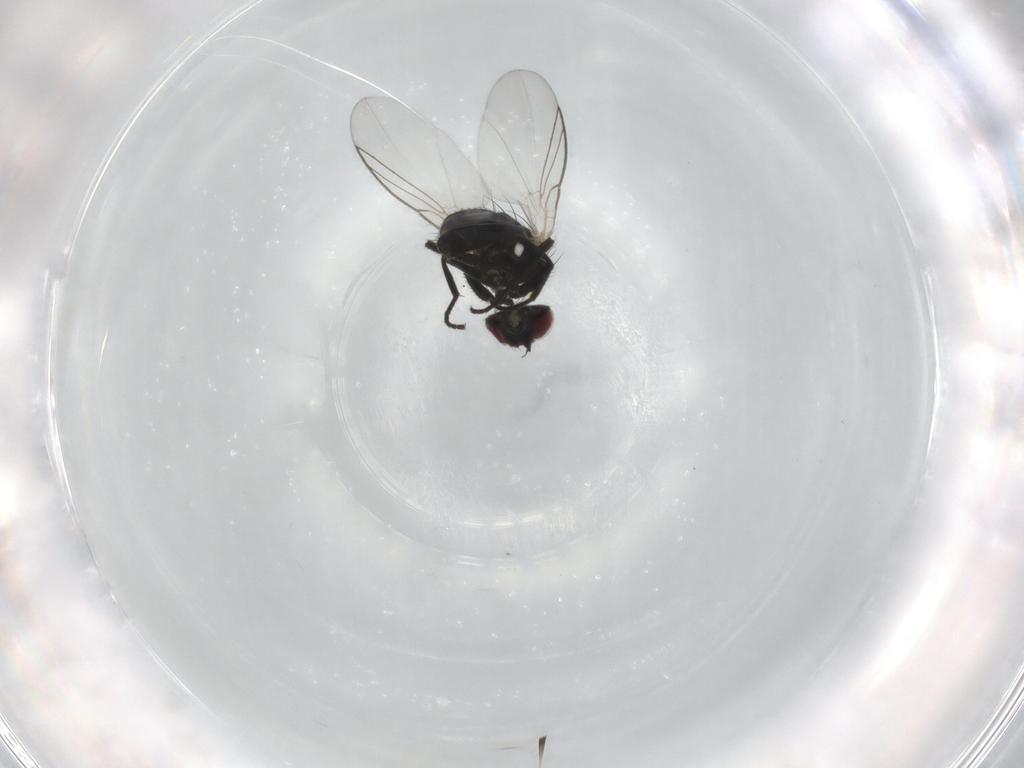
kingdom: Animalia
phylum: Arthropoda
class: Insecta
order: Diptera
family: Agromyzidae
